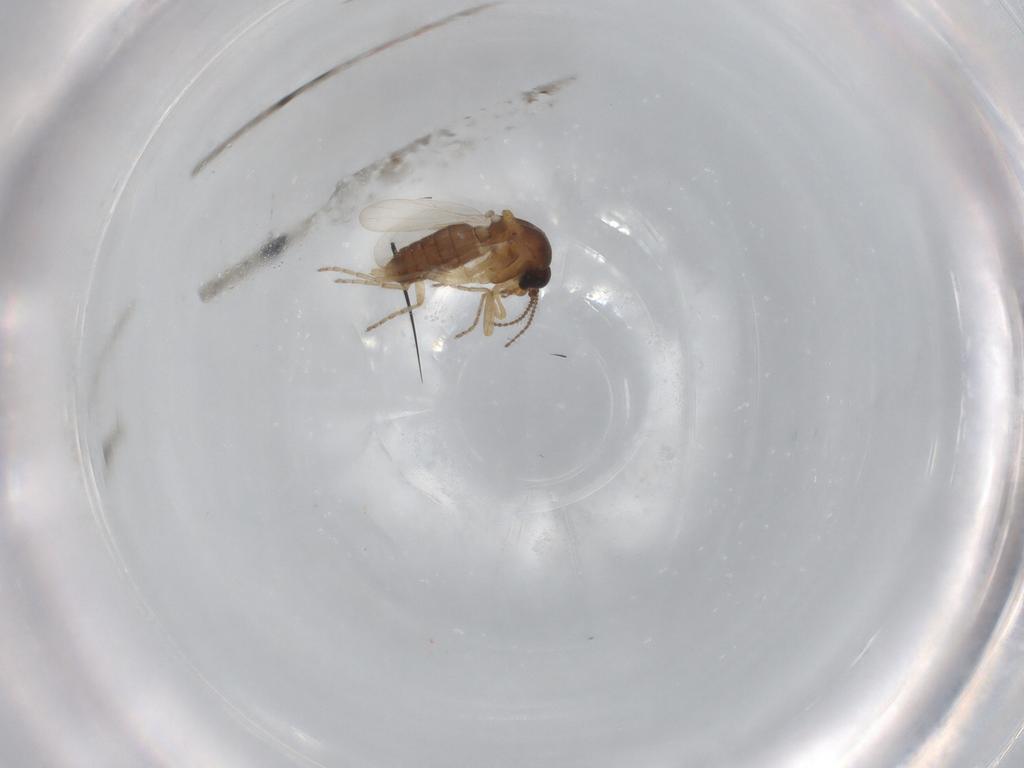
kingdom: Animalia
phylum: Arthropoda
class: Insecta
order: Diptera
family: Ceratopogonidae
